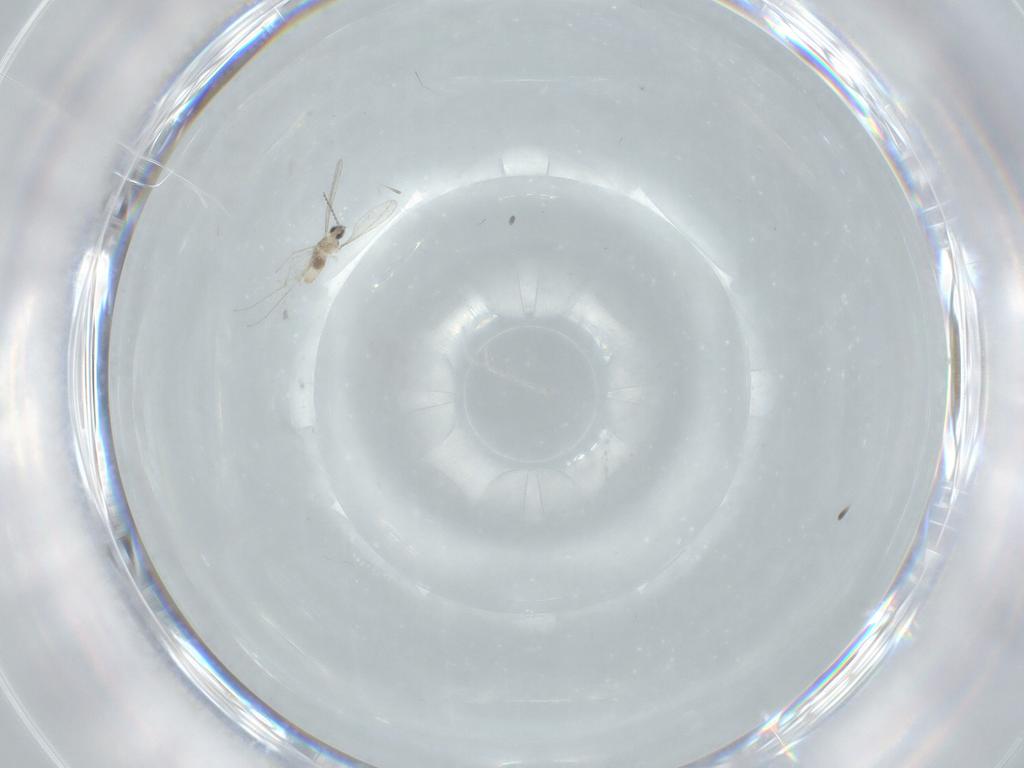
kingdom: Animalia
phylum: Arthropoda
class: Insecta
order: Diptera
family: Cecidomyiidae
